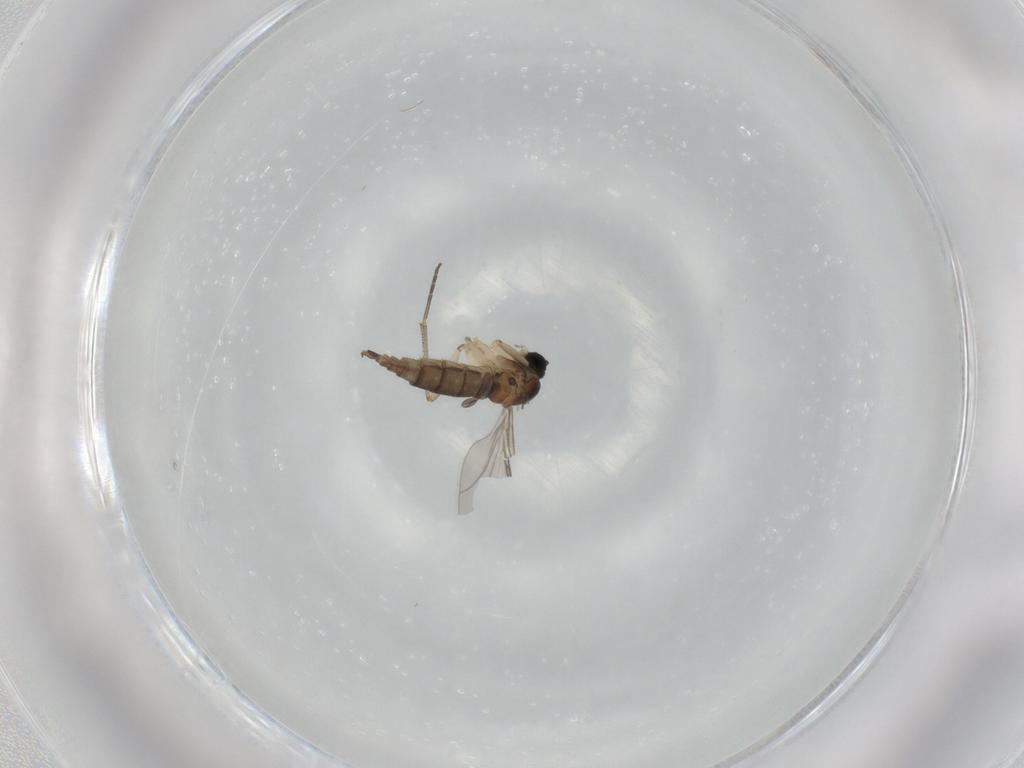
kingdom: Animalia
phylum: Arthropoda
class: Insecta
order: Diptera
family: Sciaridae
